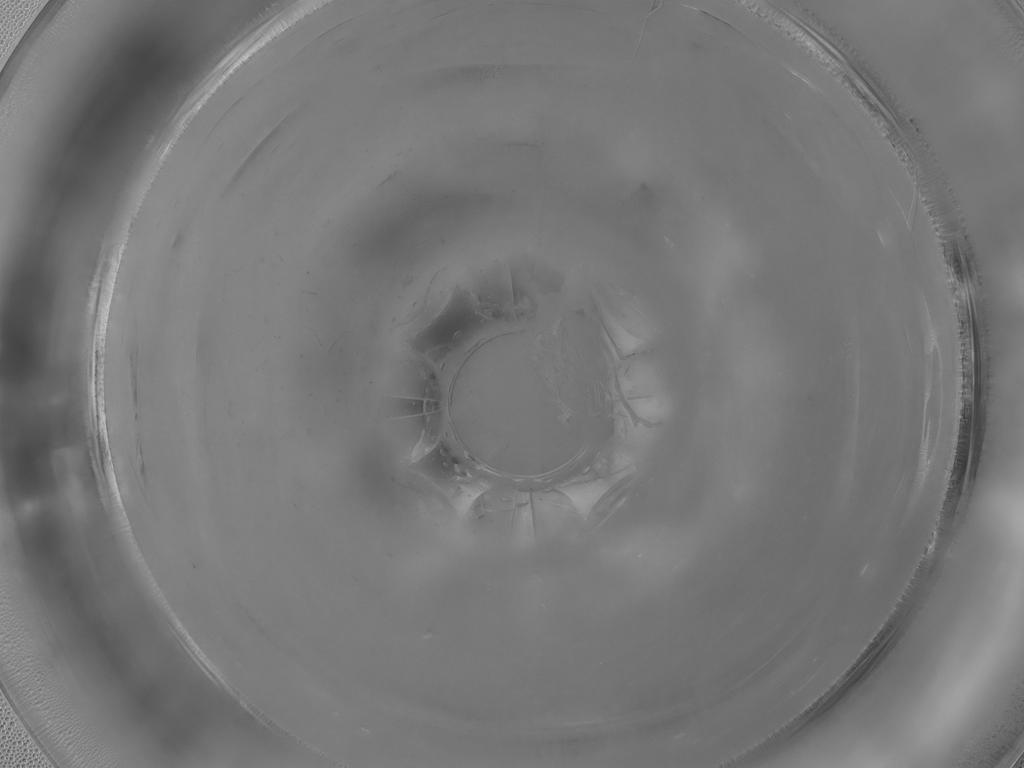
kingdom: Animalia
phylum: Arthropoda
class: Insecta
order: Diptera
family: Cecidomyiidae
